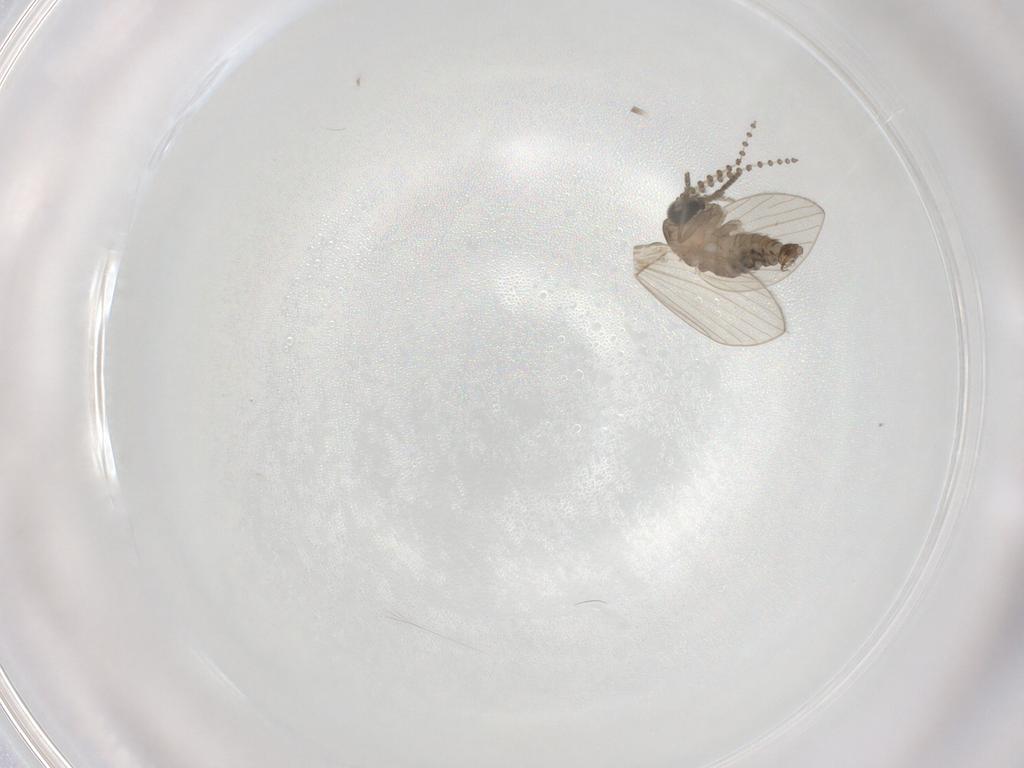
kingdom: Animalia
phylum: Arthropoda
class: Insecta
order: Diptera
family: Psychodidae
